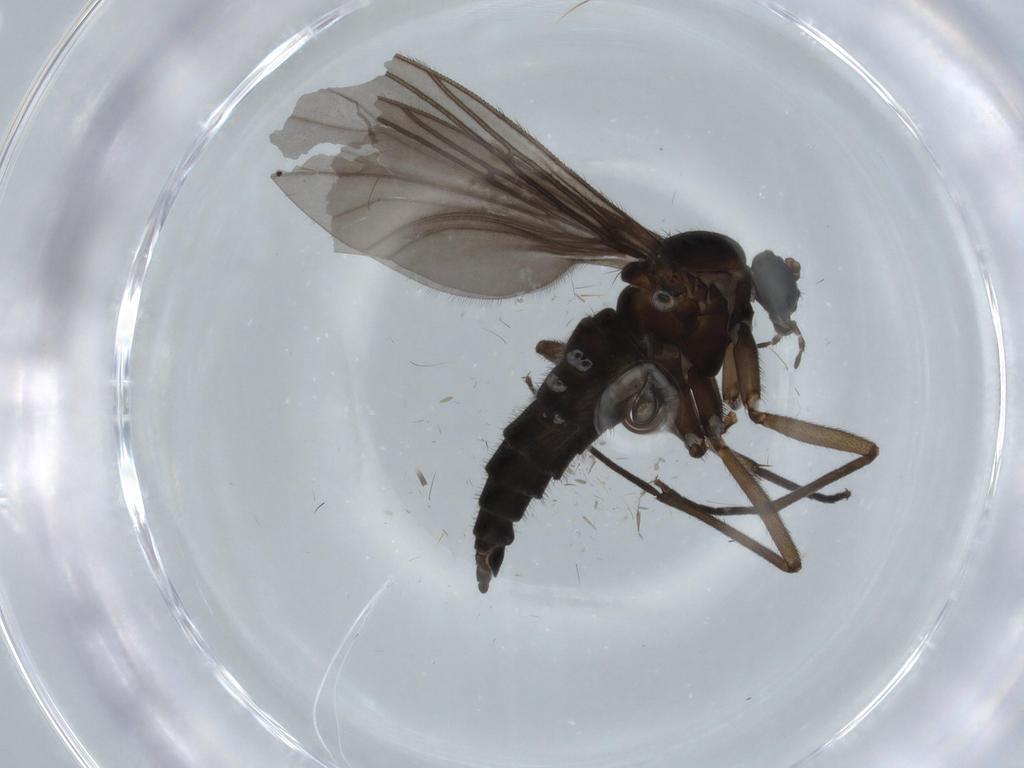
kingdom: Animalia
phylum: Arthropoda
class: Insecta
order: Diptera
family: Sciaridae
